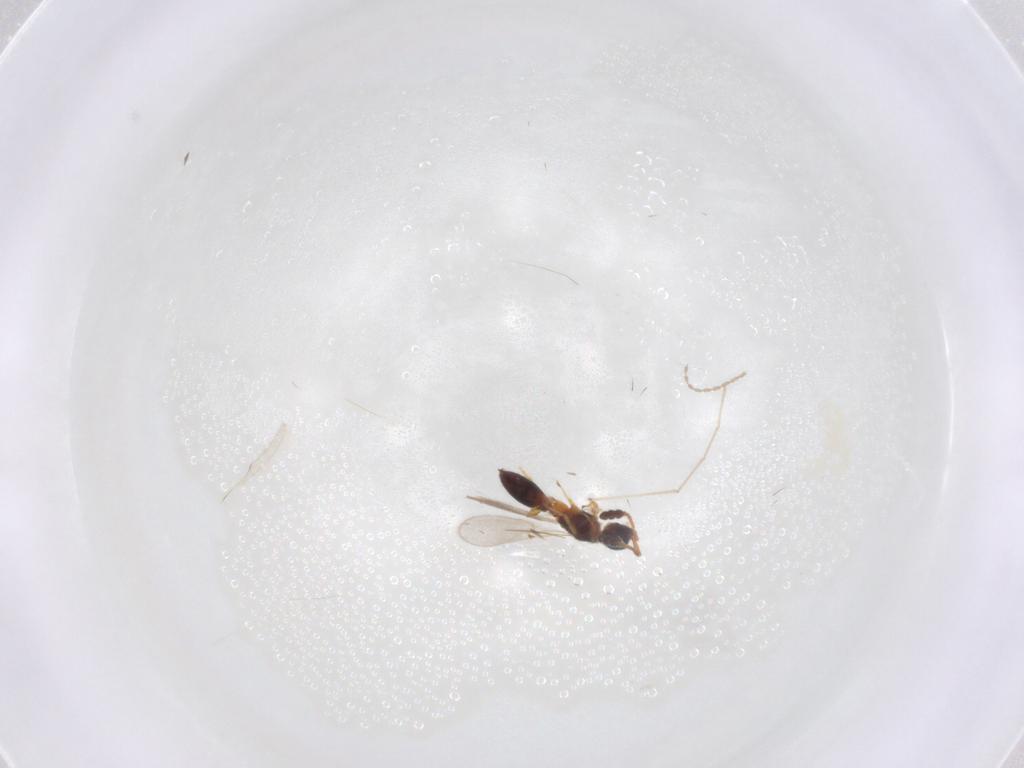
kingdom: Animalia
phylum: Arthropoda
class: Insecta
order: Hymenoptera
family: Diapriidae
